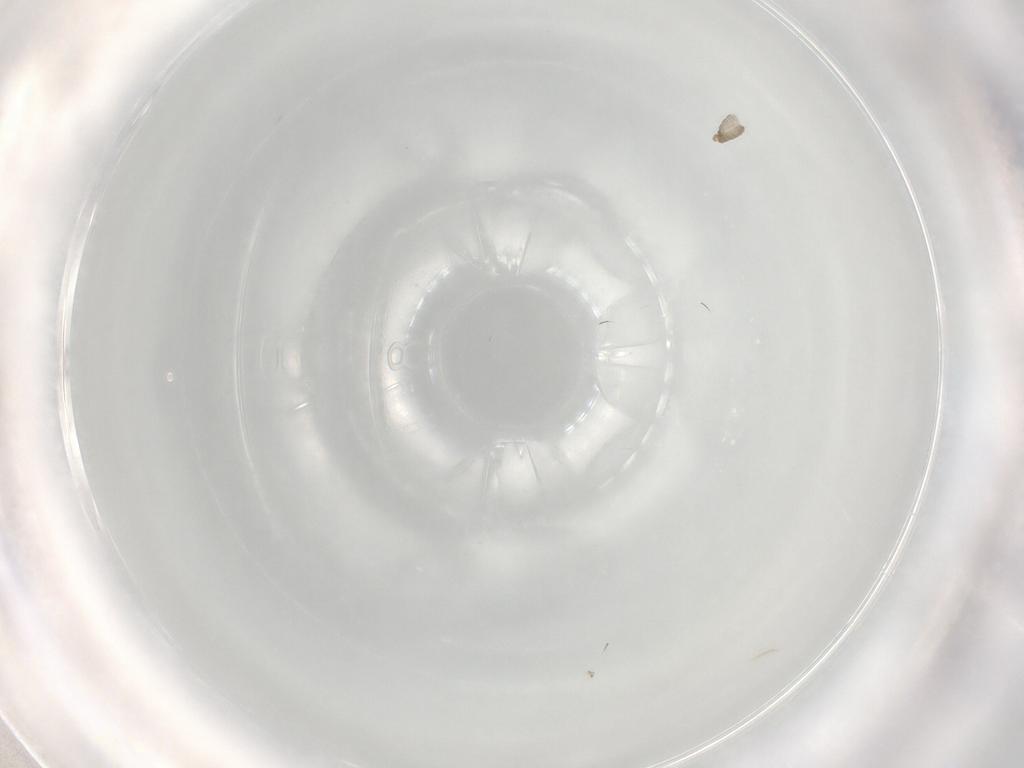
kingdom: Animalia
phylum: Arthropoda
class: Insecta
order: Diptera
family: Cecidomyiidae
